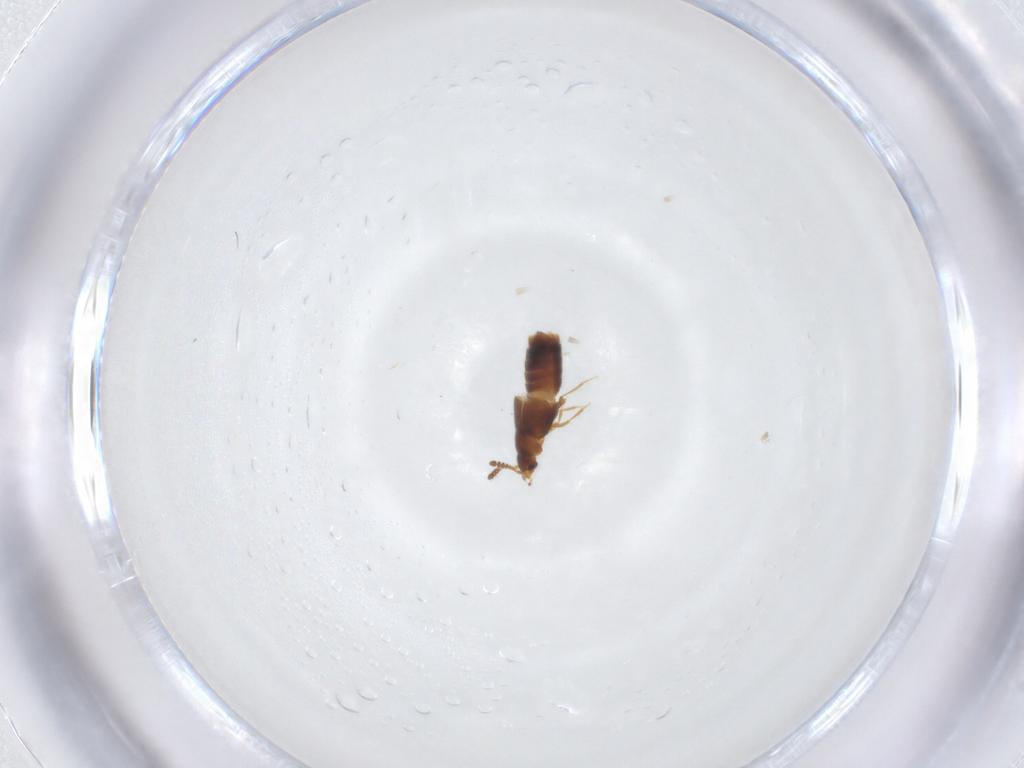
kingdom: Animalia
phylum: Arthropoda
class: Insecta
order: Coleoptera
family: Staphylinidae
